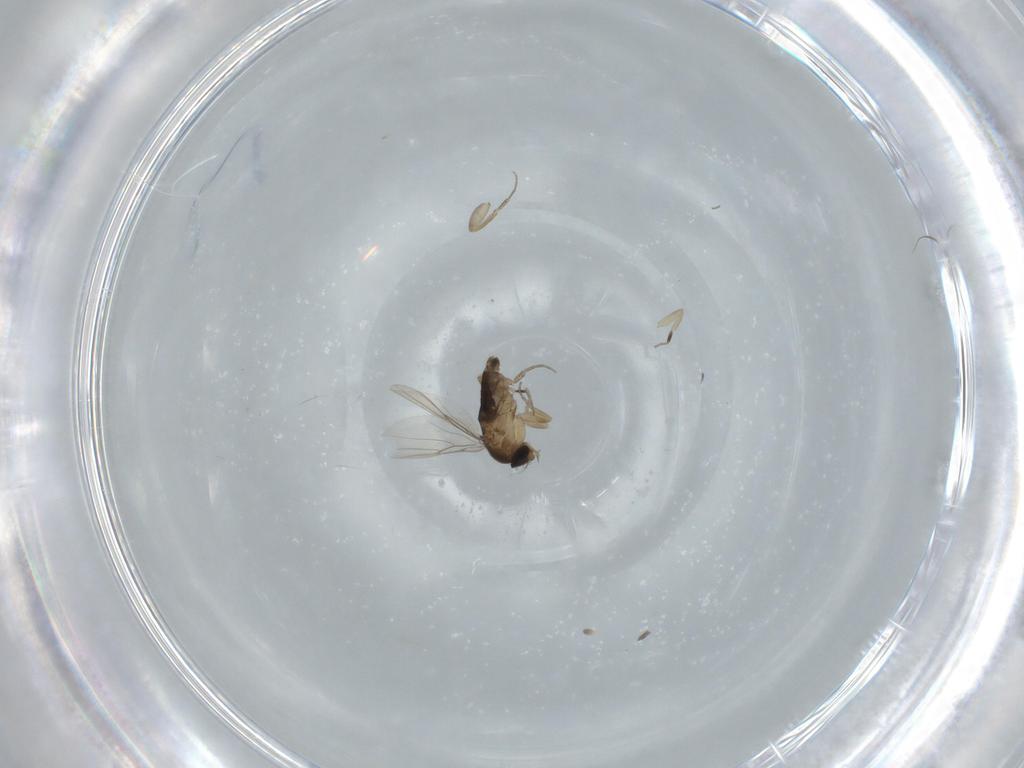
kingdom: Animalia
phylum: Arthropoda
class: Insecta
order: Diptera
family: Phoridae
